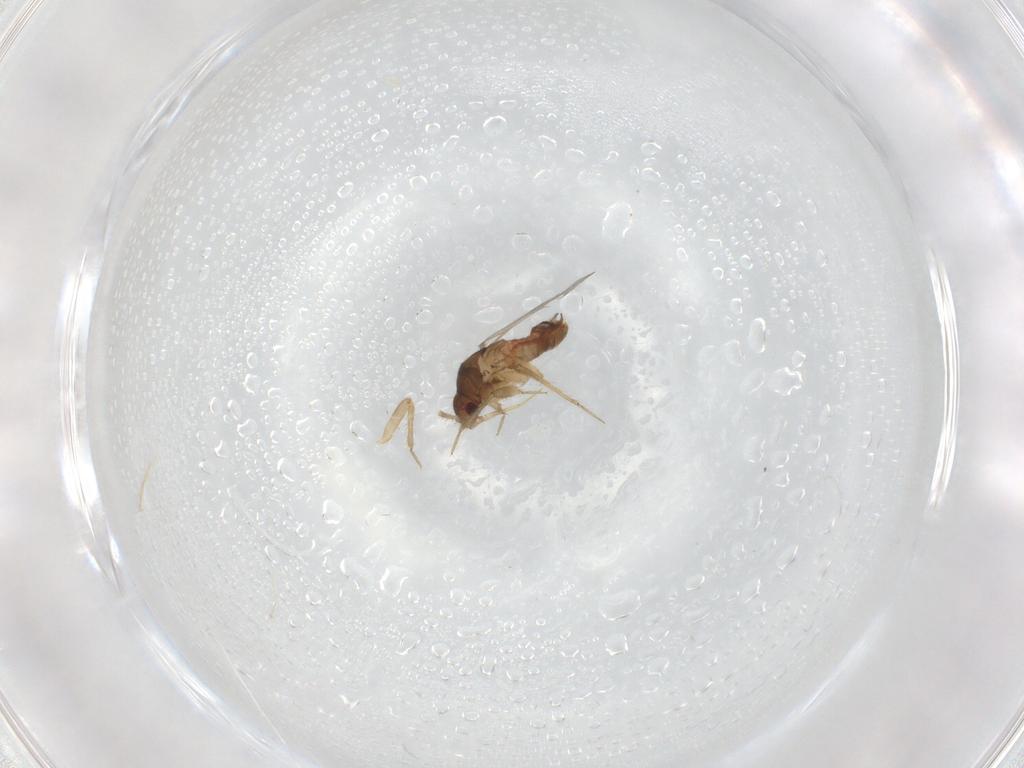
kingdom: Animalia
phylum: Arthropoda
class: Insecta
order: Hemiptera
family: Ceratocombidae
